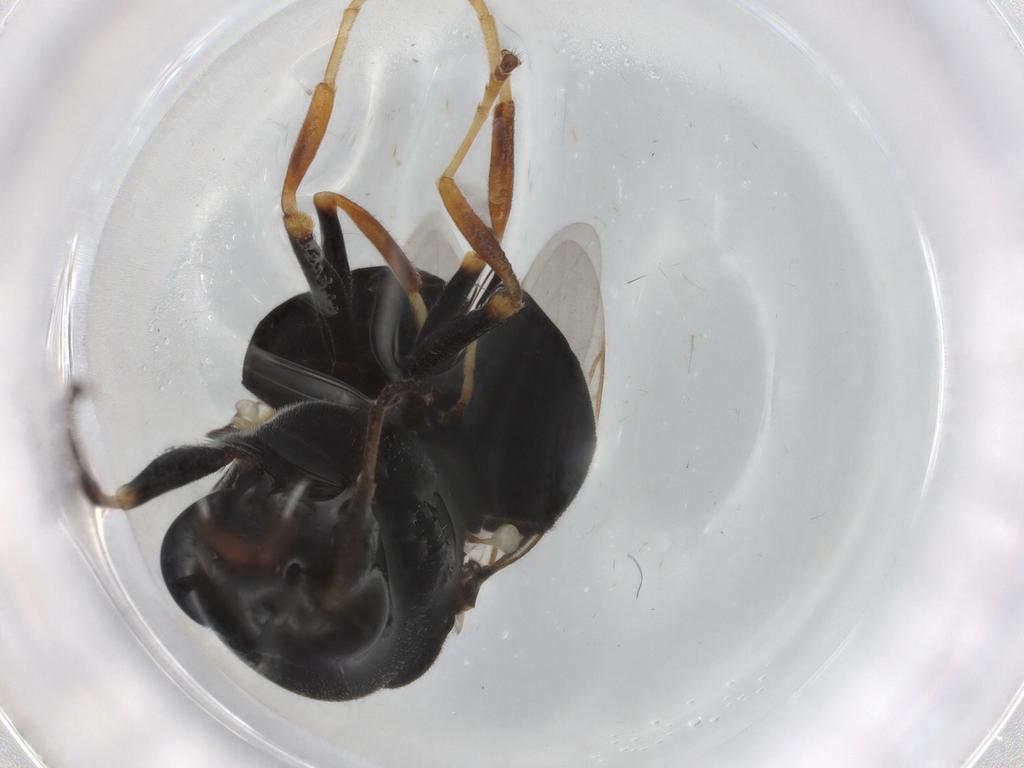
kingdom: Animalia
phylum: Arthropoda
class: Insecta
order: Diptera
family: Stratiomyidae
